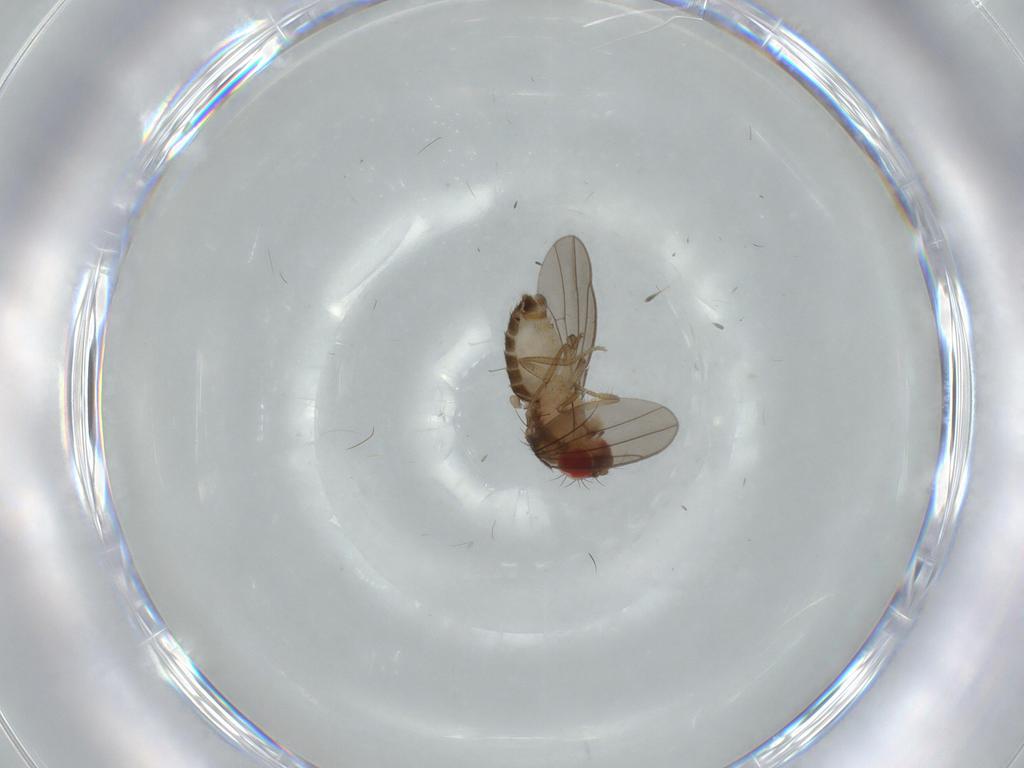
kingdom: Animalia
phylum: Arthropoda
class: Insecta
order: Diptera
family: Drosophilidae
